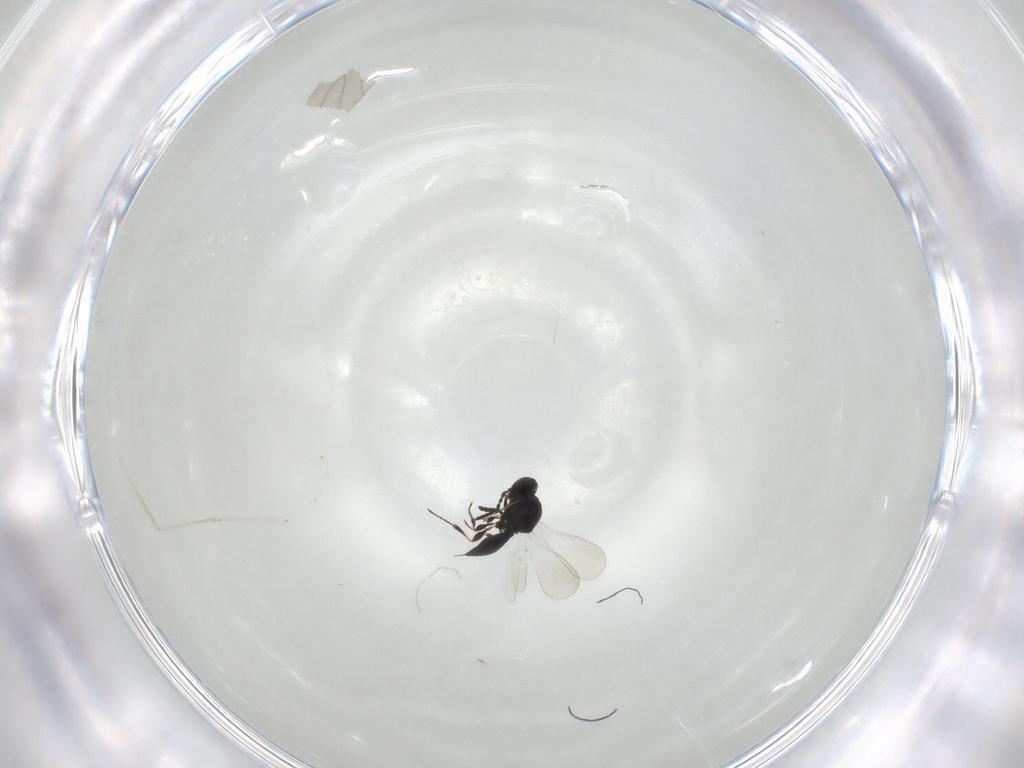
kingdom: Animalia
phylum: Arthropoda
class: Insecta
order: Hymenoptera
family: Platygastridae
